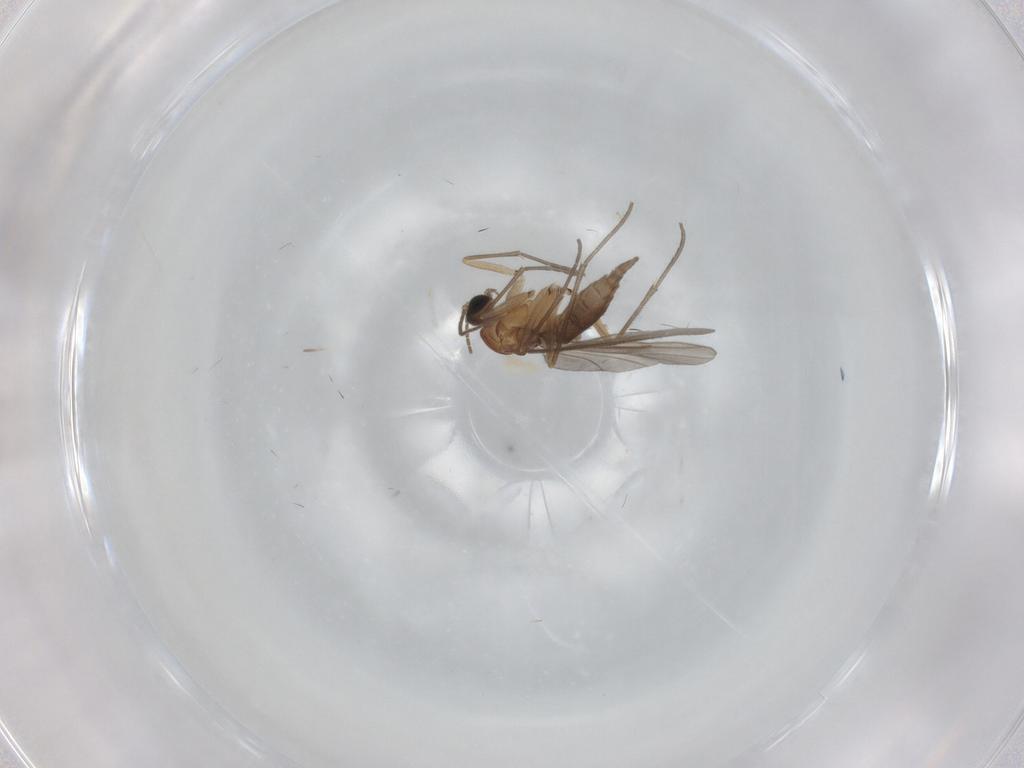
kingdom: Animalia
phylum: Arthropoda
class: Insecta
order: Diptera
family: Sciaridae
